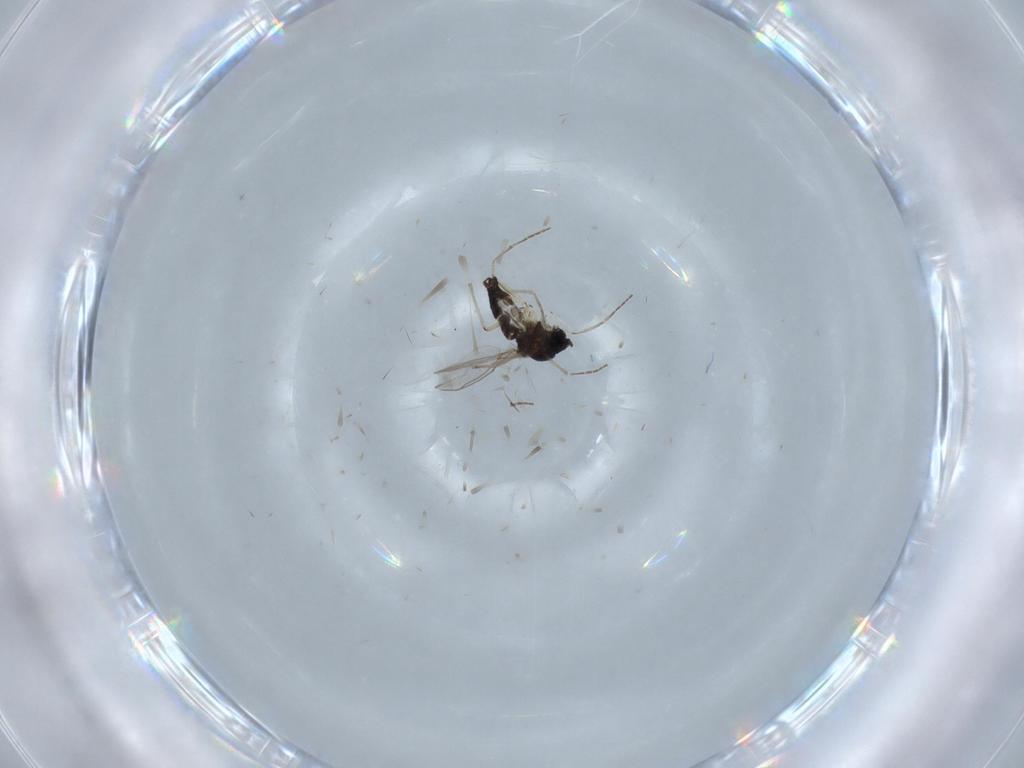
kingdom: Animalia
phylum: Arthropoda
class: Insecta
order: Diptera
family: Sciaridae
